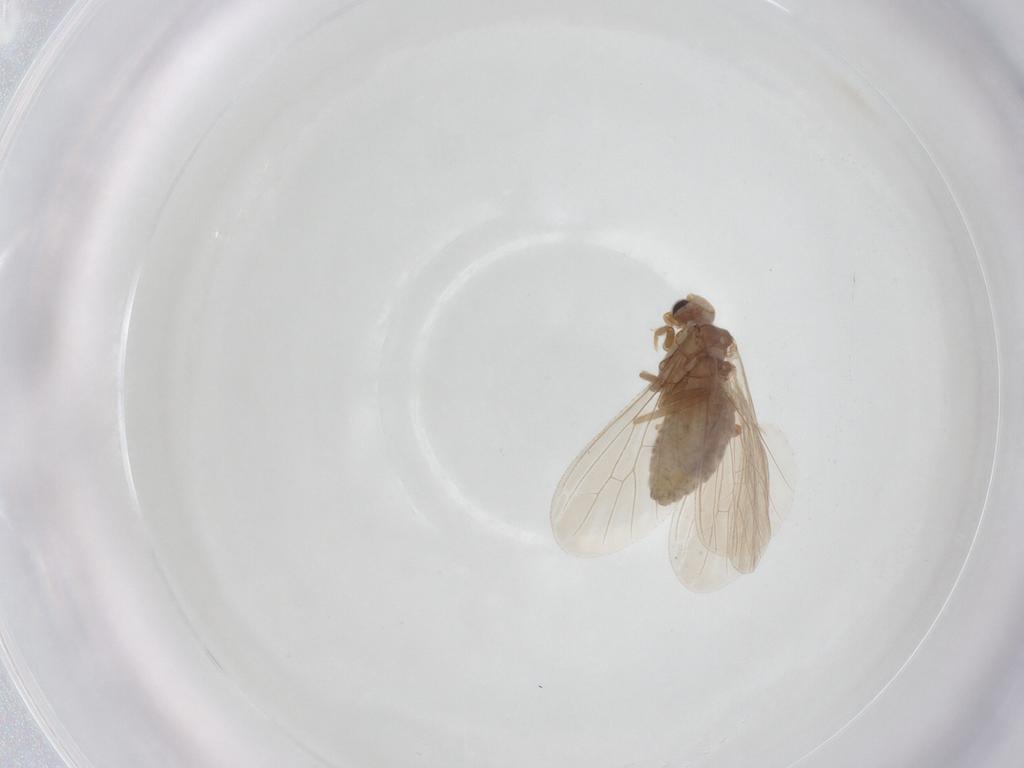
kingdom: Animalia
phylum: Arthropoda
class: Insecta
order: Neuroptera
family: Coniopterygidae
